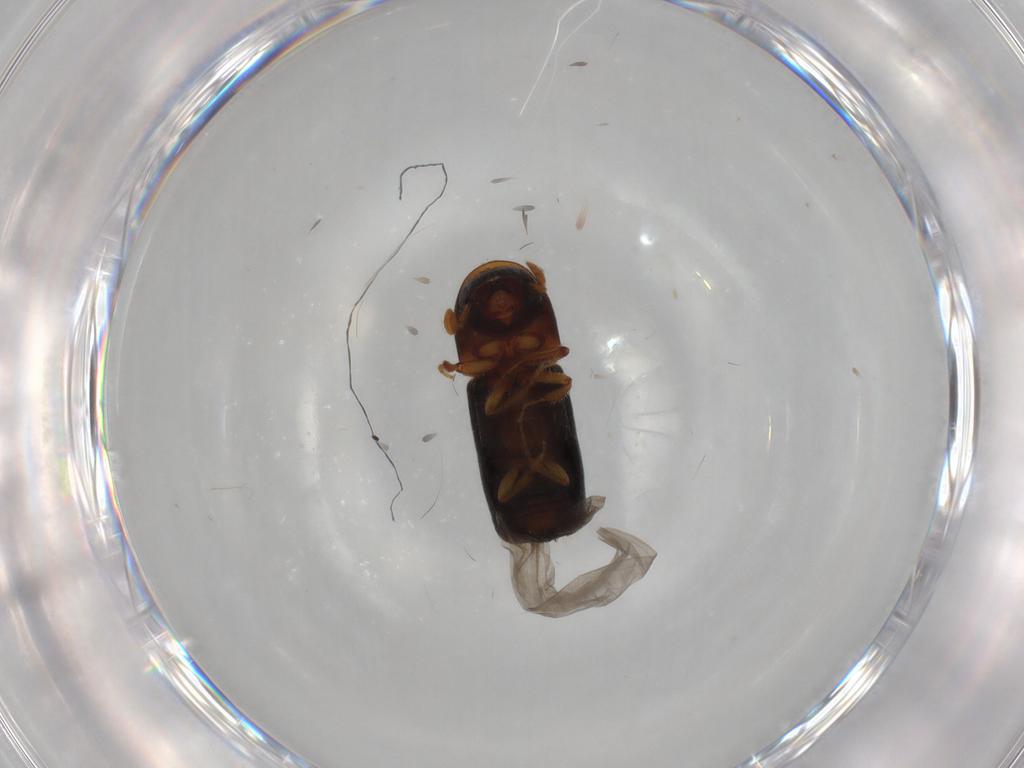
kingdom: Animalia
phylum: Arthropoda
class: Insecta
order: Coleoptera
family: Curculionidae
